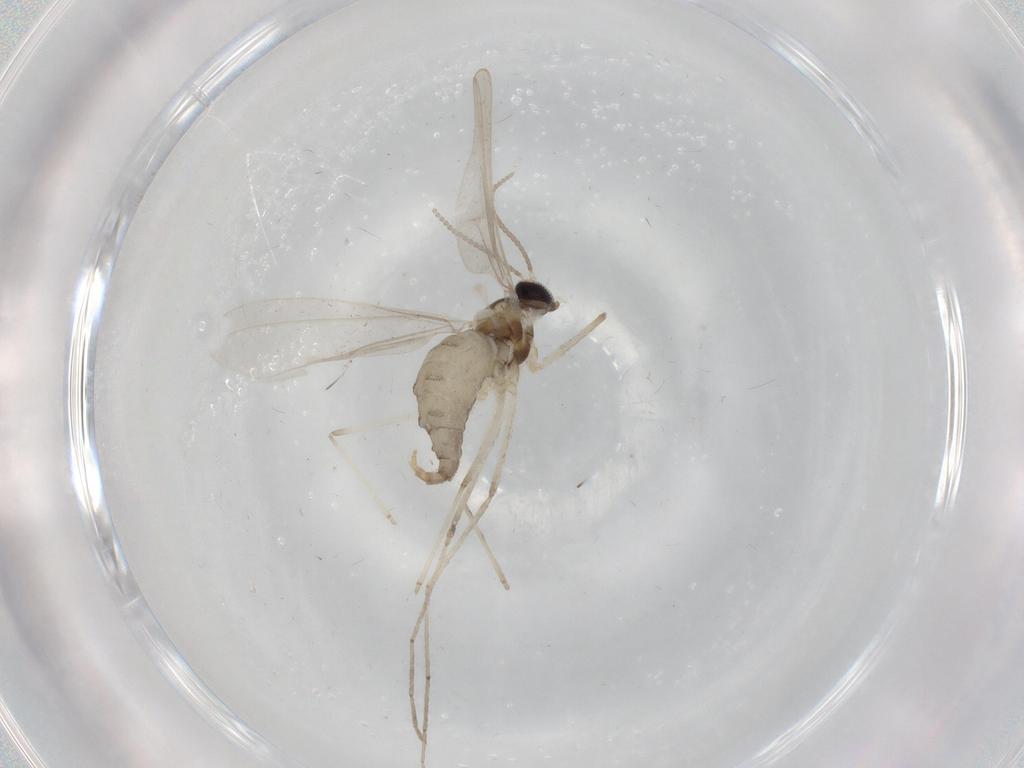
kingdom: Animalia
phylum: Arthropoda
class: Insecta
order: Diptera
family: Cecidomyiidae
